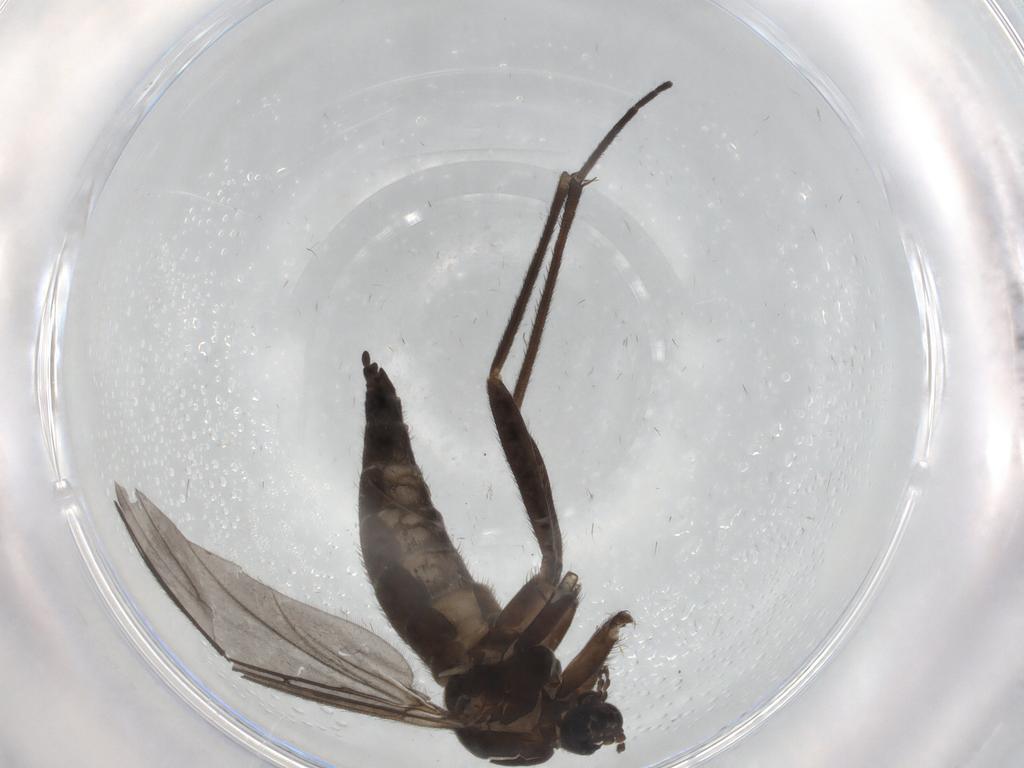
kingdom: Animalia
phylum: Arthropoda
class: Insecta
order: Diptera
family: Sciaridae
